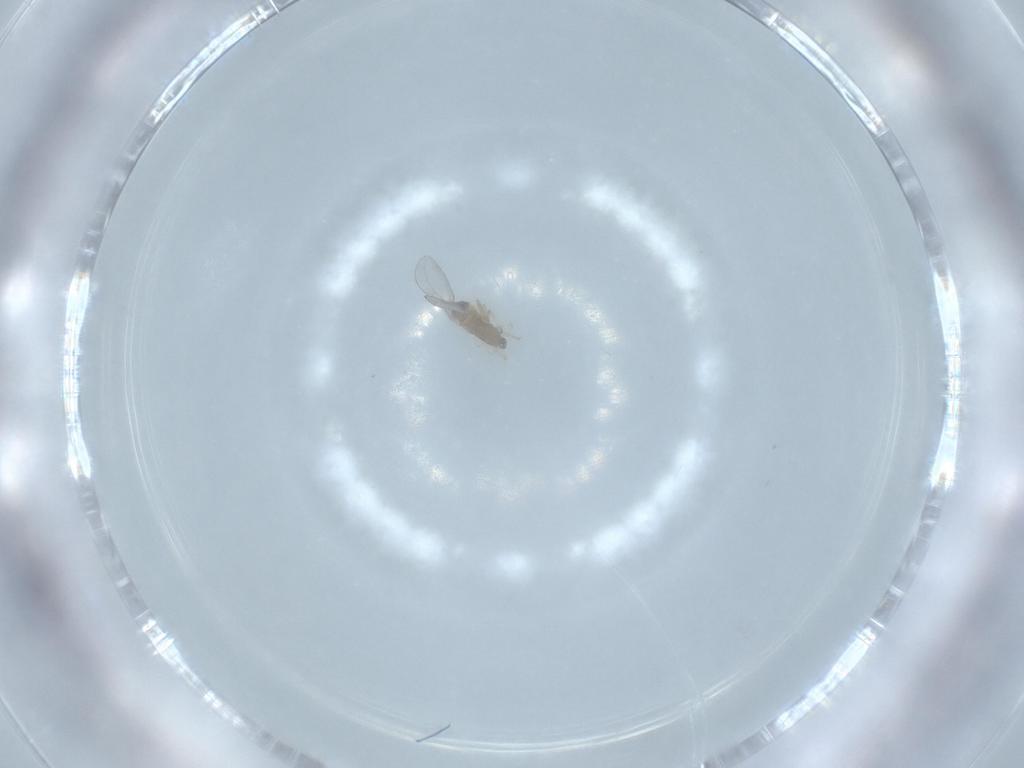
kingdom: Animalia
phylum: Arthropoda
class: Insecta
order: Diptera
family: Cecidomyiidae
